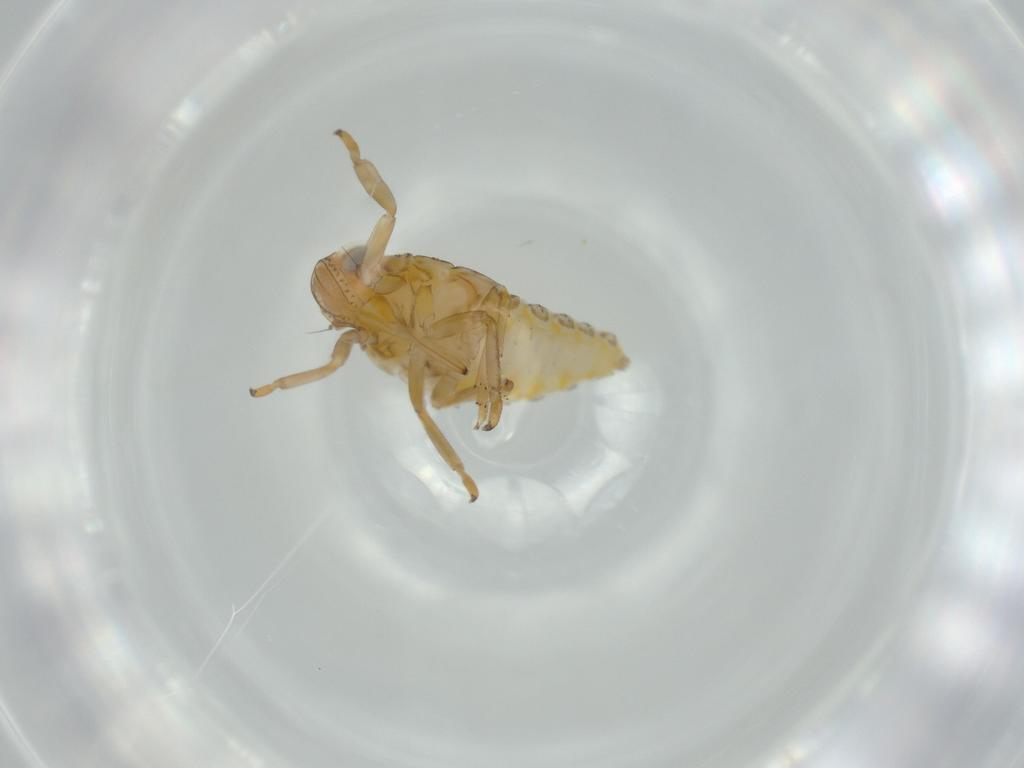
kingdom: Animalia
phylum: Arthropoda
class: Insecta
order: Hemiptera
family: Issidae
